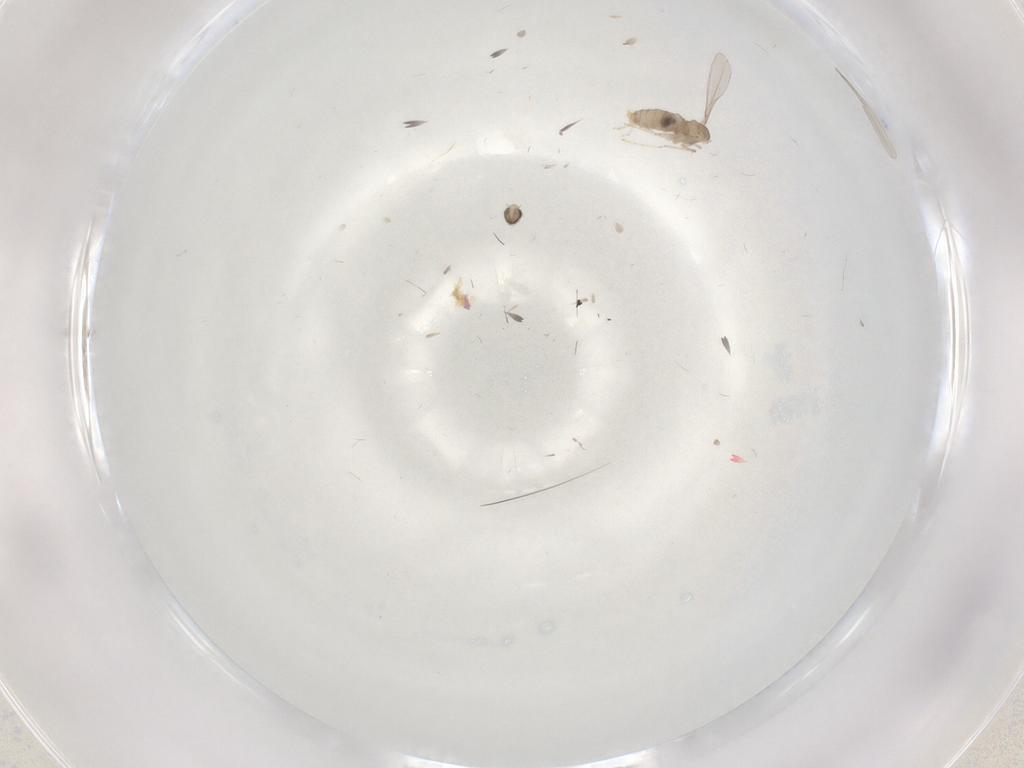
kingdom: Animalia
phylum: Arthropoda
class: Insecta
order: Diptera
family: Cecidomyiidae
